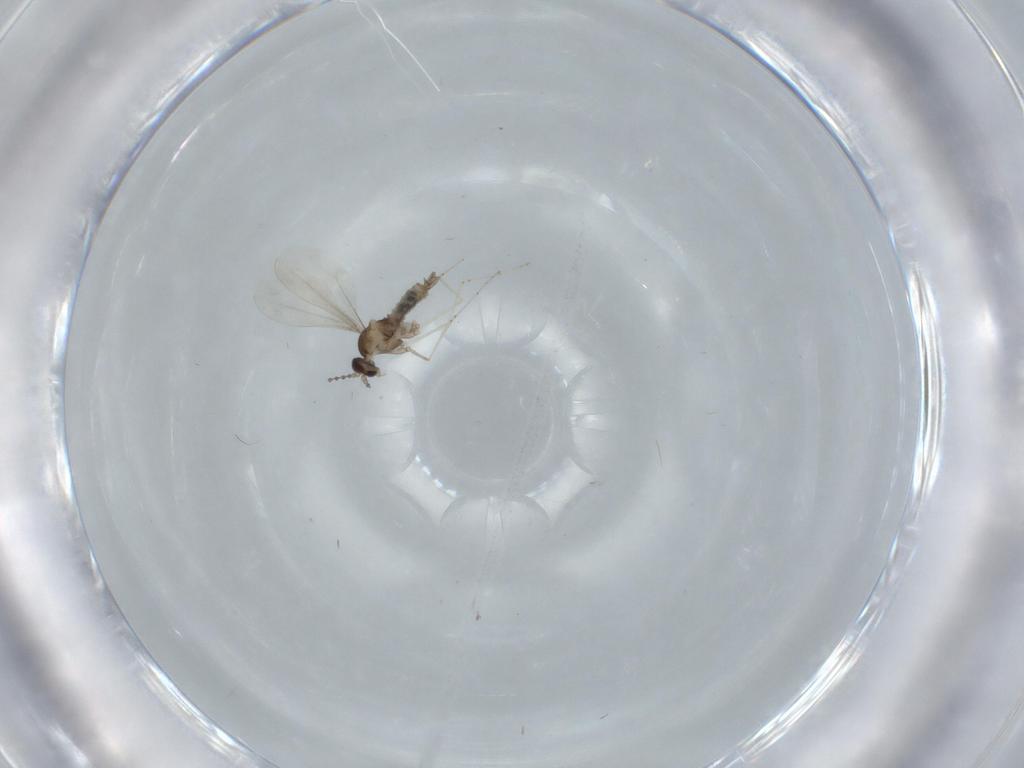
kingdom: Animalia
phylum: Arthropoda
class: Insecta
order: Diptera
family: Cecidomyiidae
